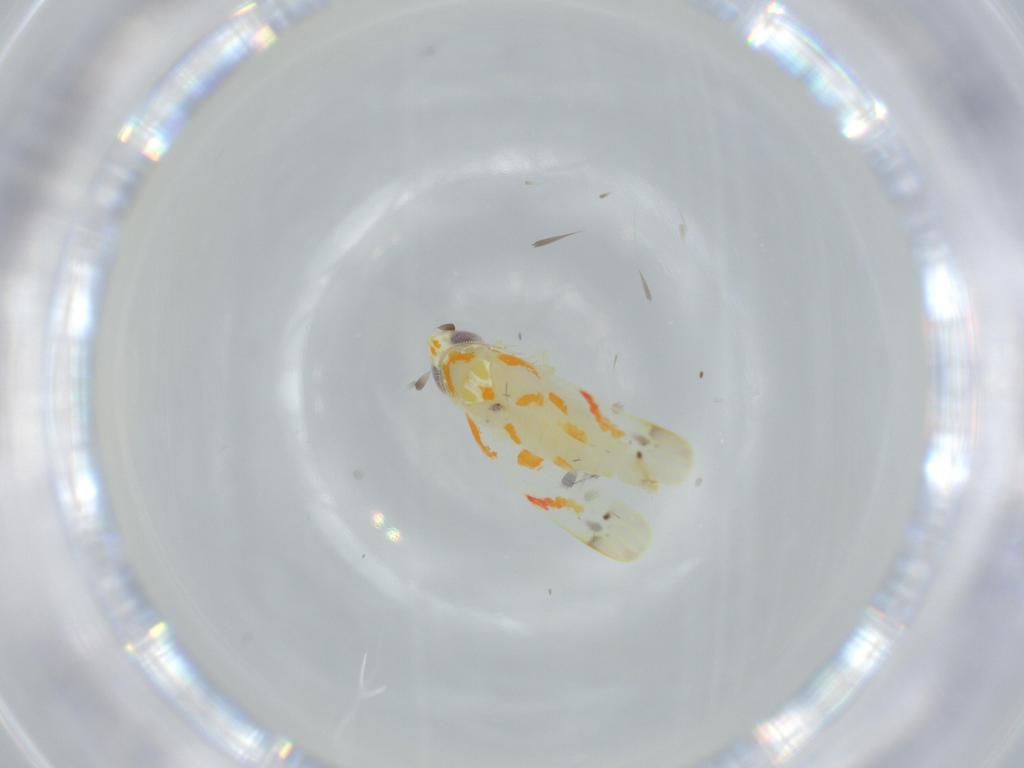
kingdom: Animalia
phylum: Arthropoda
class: Insecta
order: Hemiptera
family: Cicadellidae
